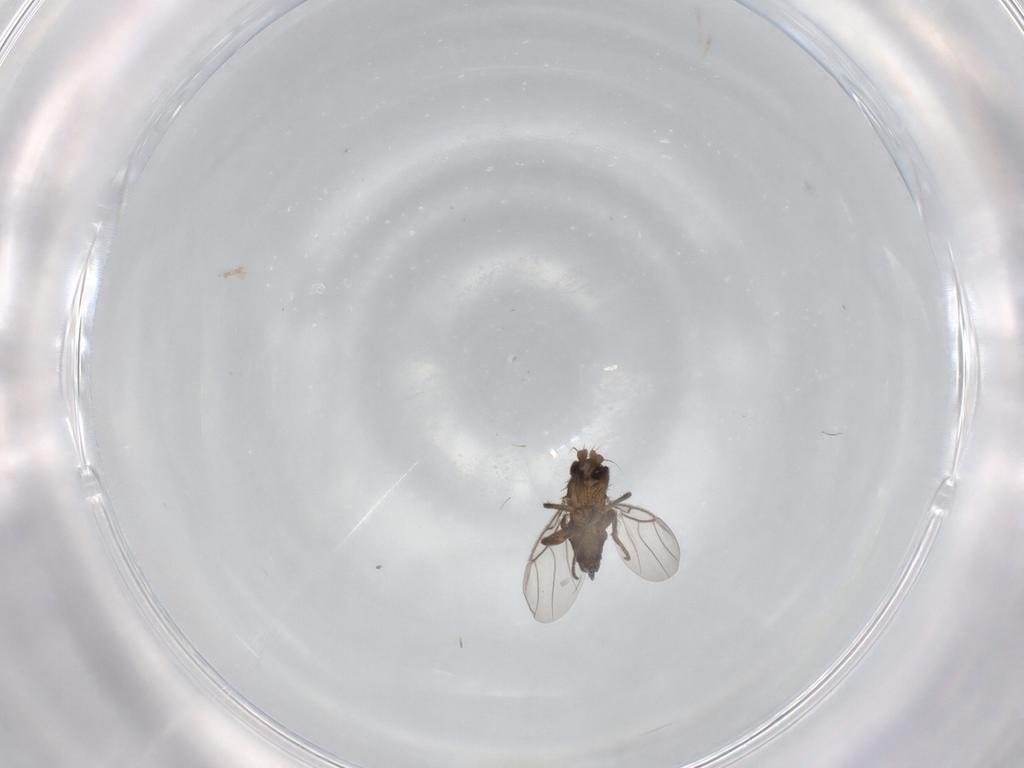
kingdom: Animalia
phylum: Arthropoda
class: Insecta
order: Diptera
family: Phoridae
